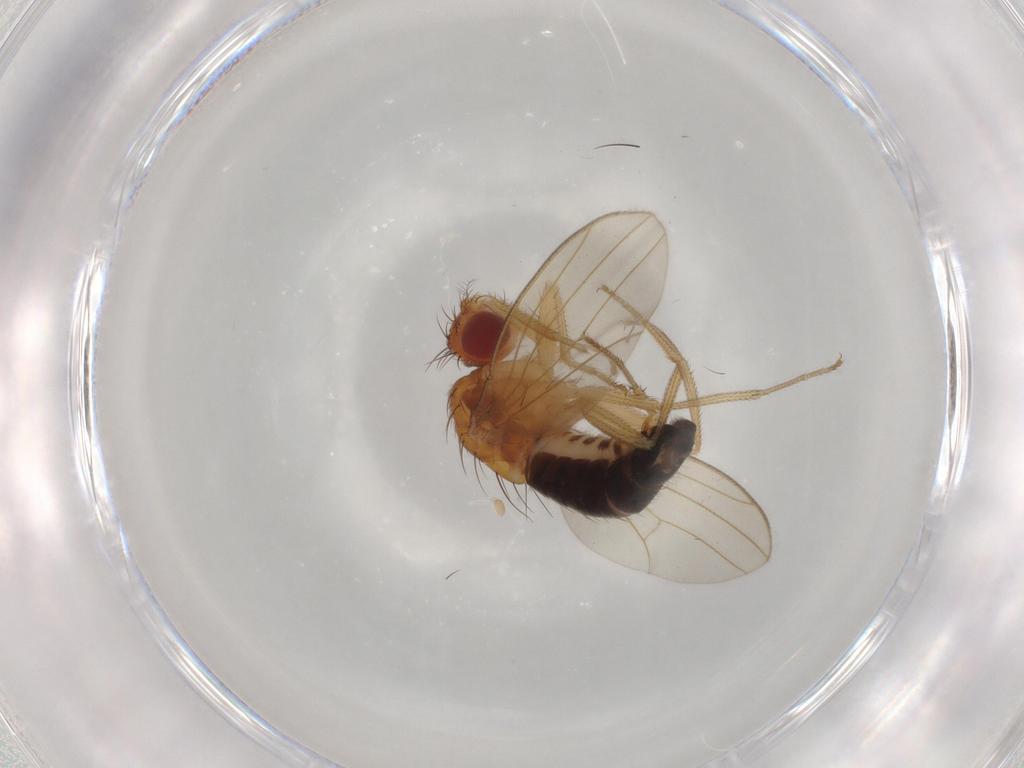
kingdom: Animalia
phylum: Arthropoda
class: Insecta
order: Diptera
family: Drosophilidae
